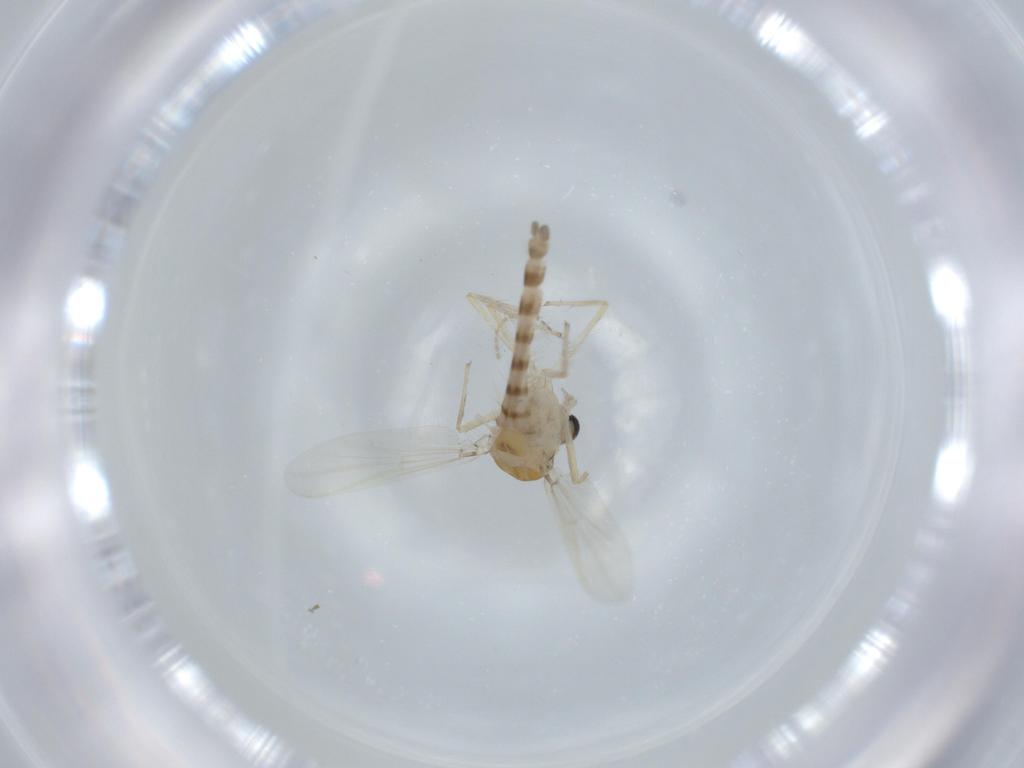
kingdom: Animalia
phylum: Arthropoda
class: Insecta
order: Diptera
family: Chironomidae
